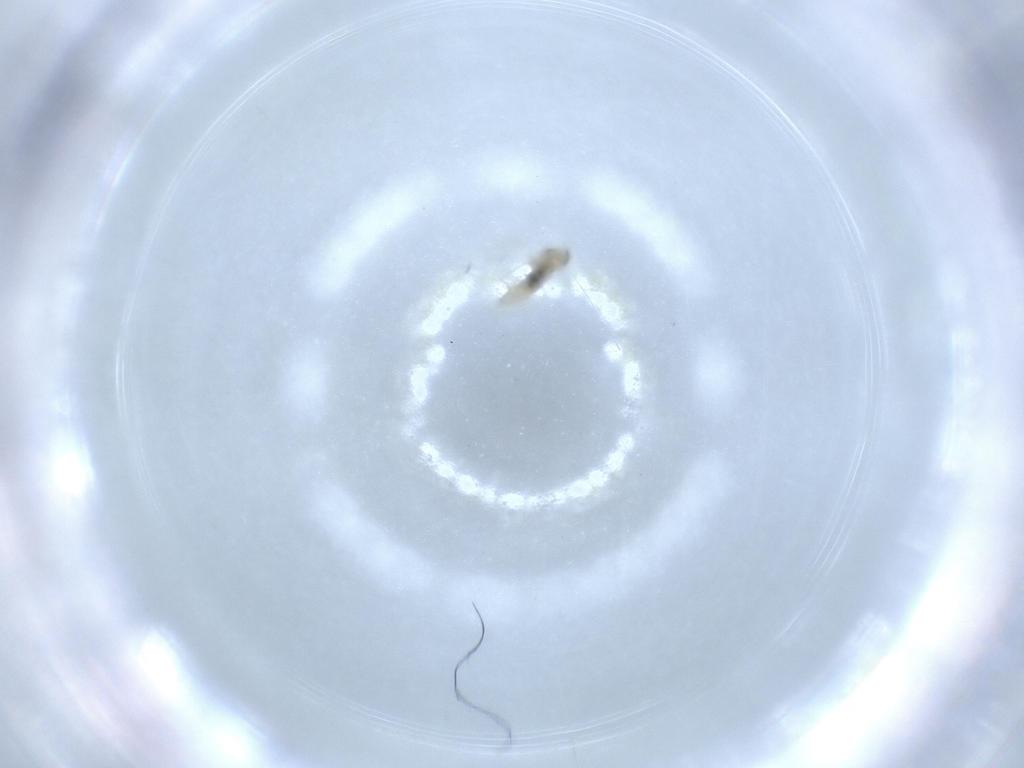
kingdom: Animalia
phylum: Arthropoda
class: Insecta
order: Diptera
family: Cecidomyiidae
